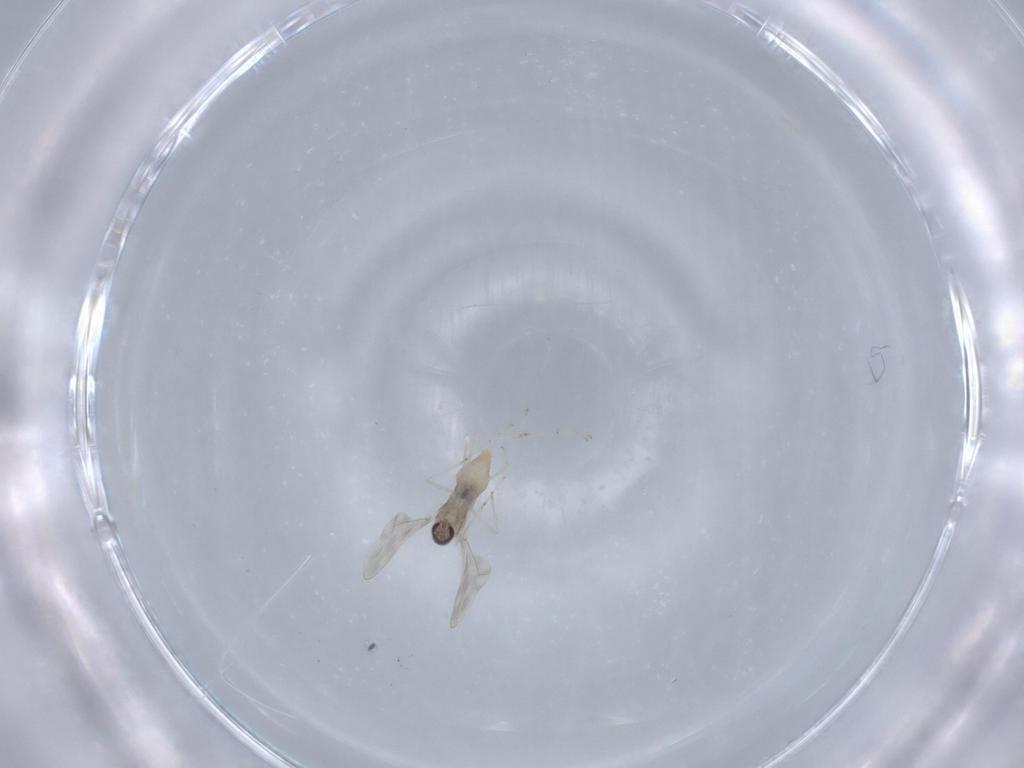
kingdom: Animalia
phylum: Arthropoda
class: Insecta
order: Diptera
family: Cecidomyiidae
